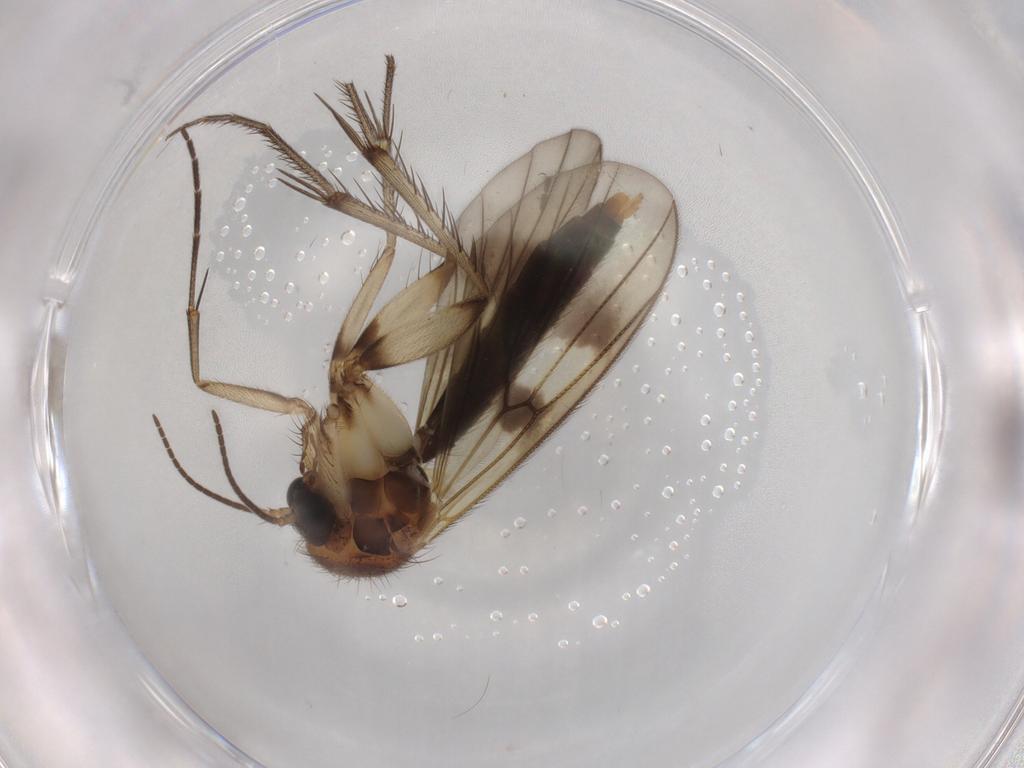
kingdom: Animalia
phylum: Arthropoda
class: Insecta
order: Diptera
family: Mycetophilidae
